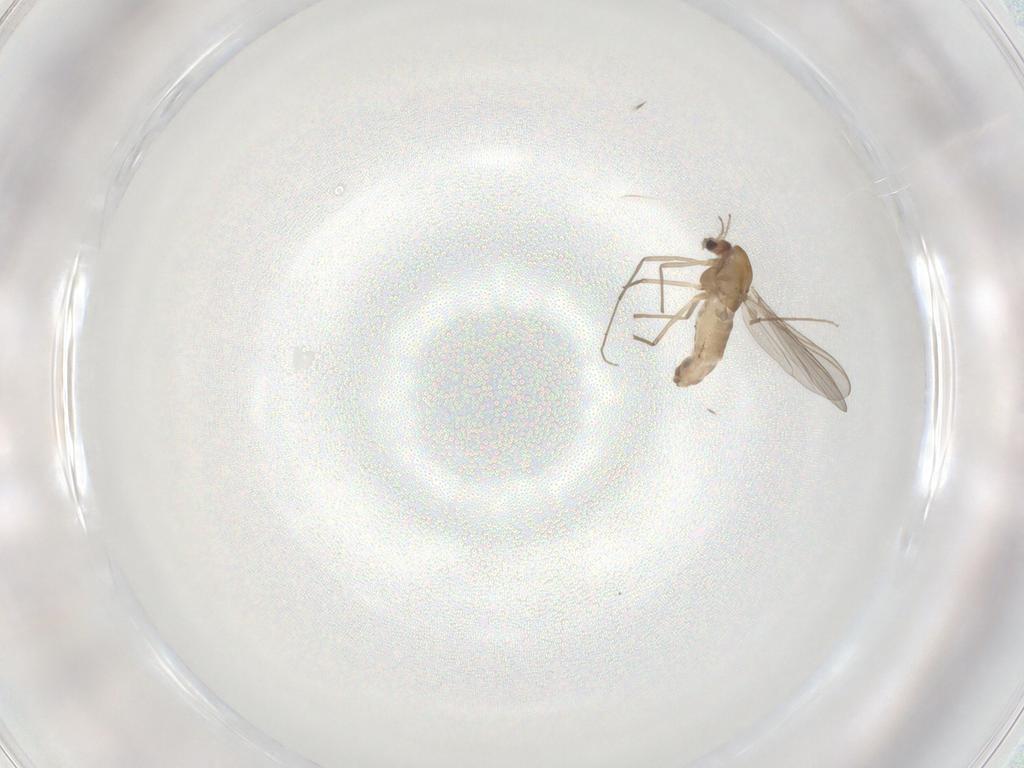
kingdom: Animalia
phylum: Arthropoda
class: Insecta
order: Diptera
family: Chironomidae
